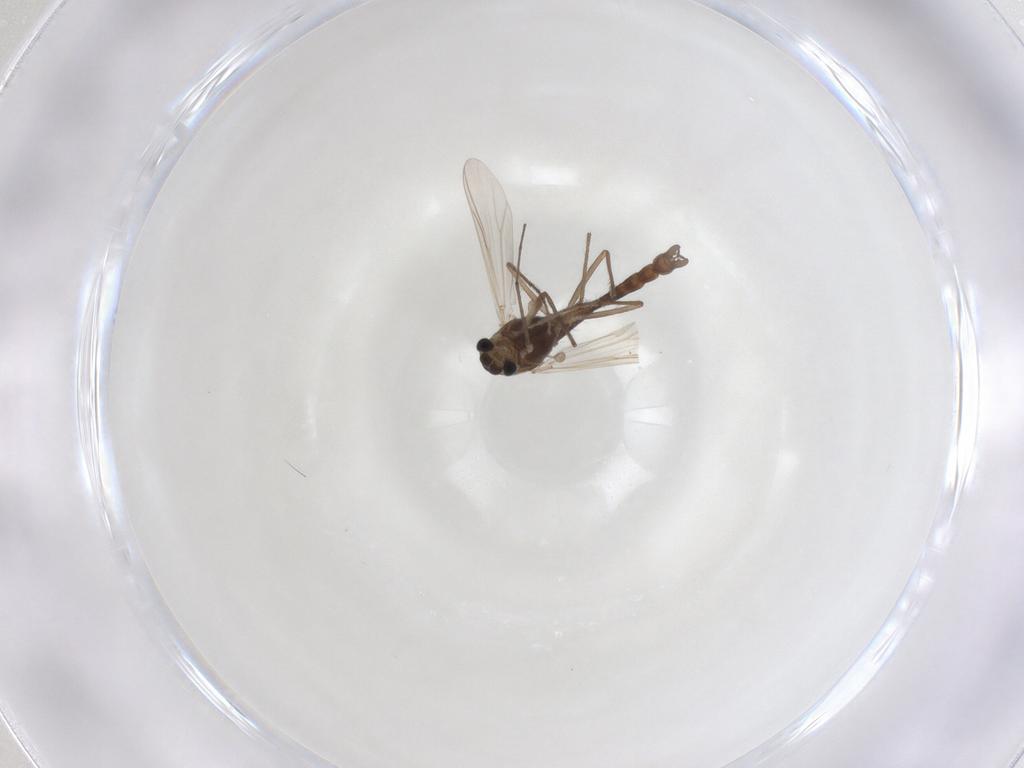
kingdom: Animalia
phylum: Arthropoda
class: Insecta
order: Diptera
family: Chironomidae
